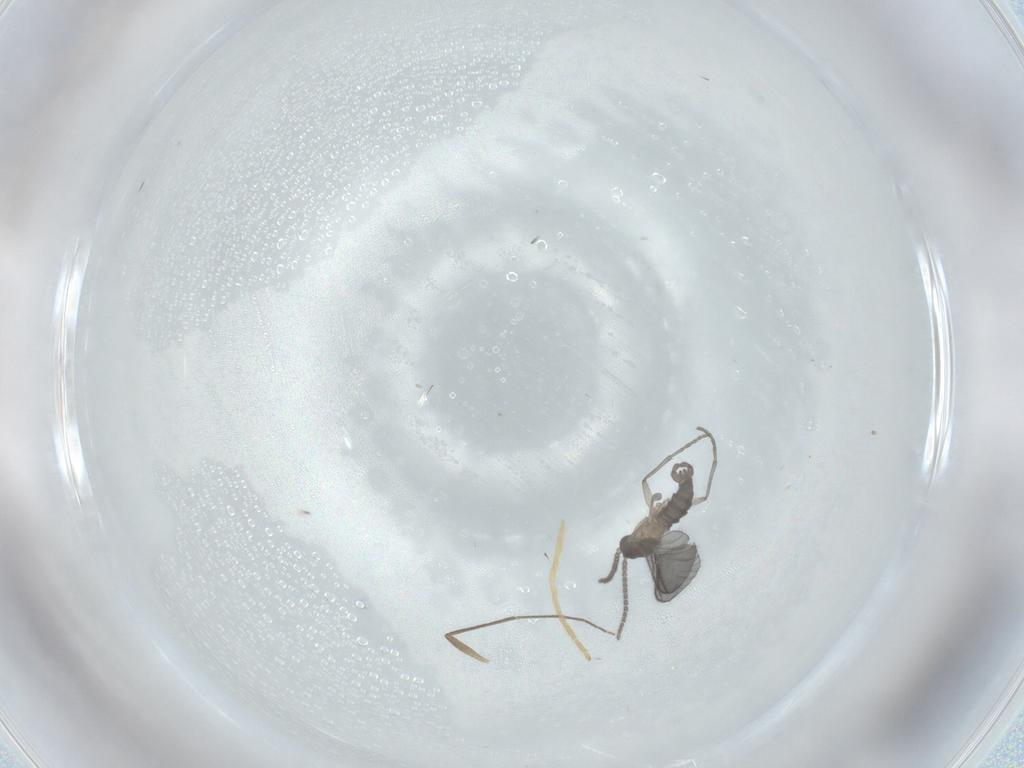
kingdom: Animalia
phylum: Arthropoda
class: Insecta
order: Diptera
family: Sciaridae
